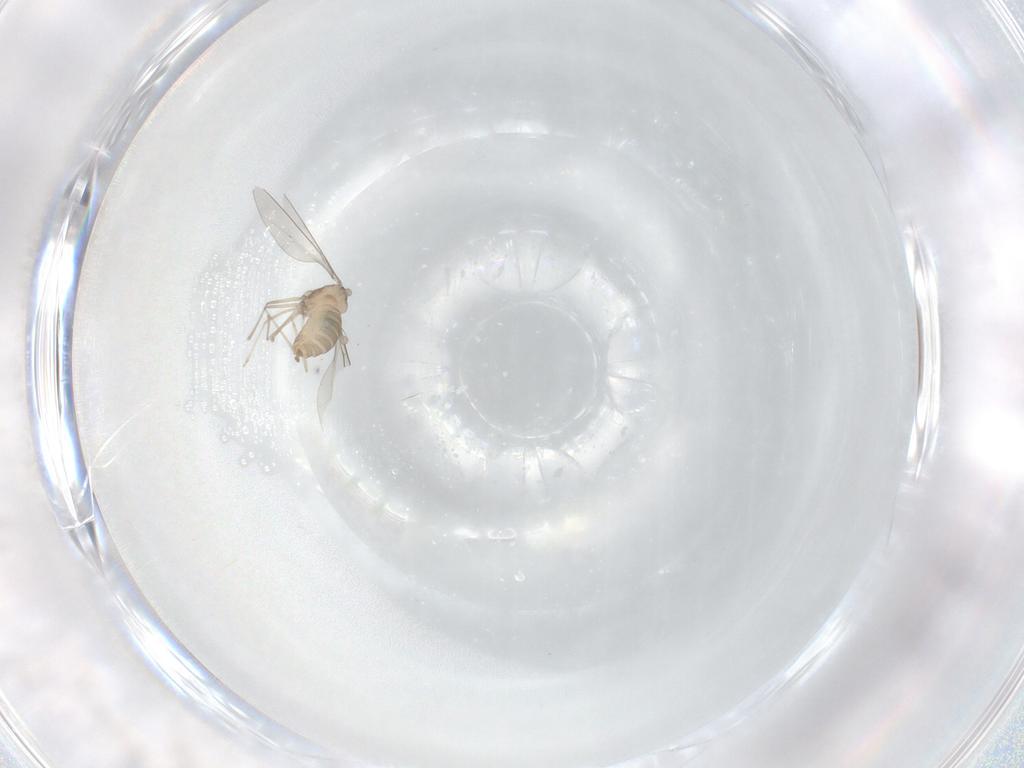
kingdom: Animalia
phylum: Arthropoda
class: Insecta
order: Diptera
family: Cecidomyiidae
